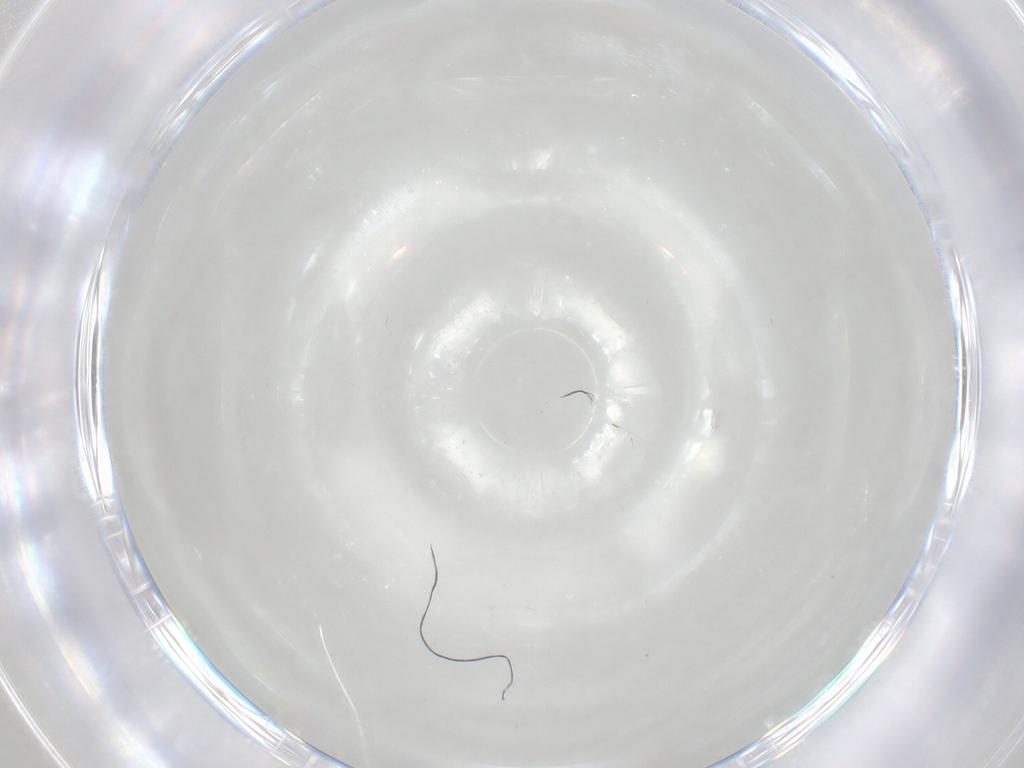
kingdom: Animalia
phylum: Arthropoda
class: Insecta
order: Diptera
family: Chironomidae
